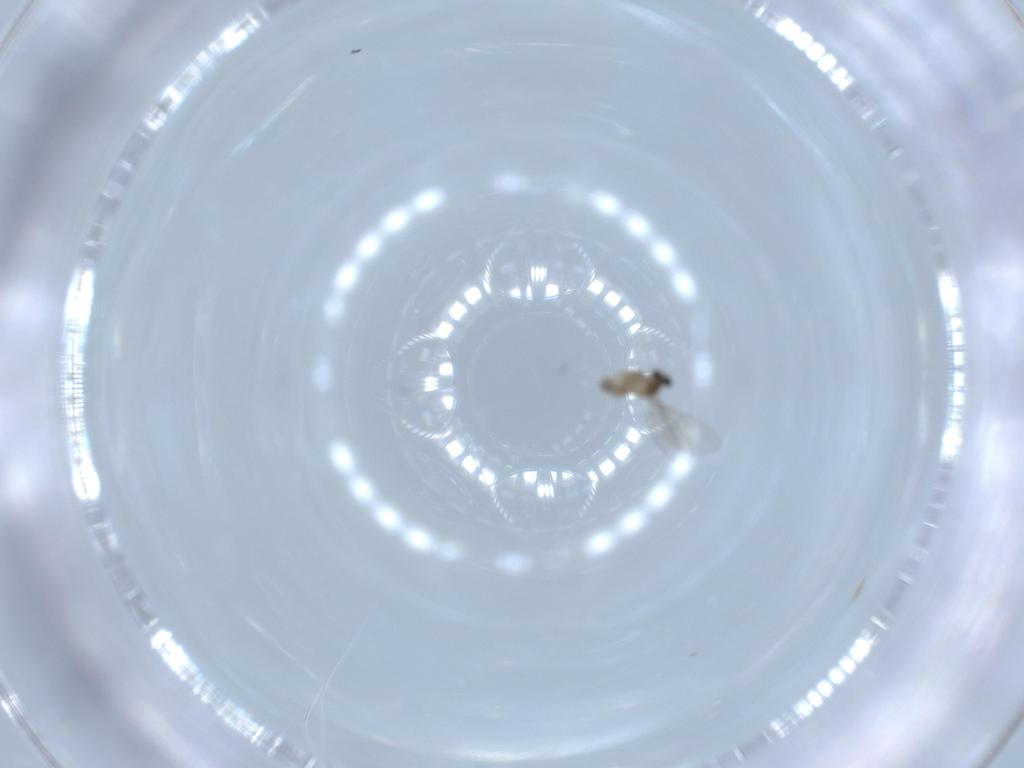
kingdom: Animalia
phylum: Arthropoda
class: Insecta
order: Diptera
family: Cecidomyiidae
